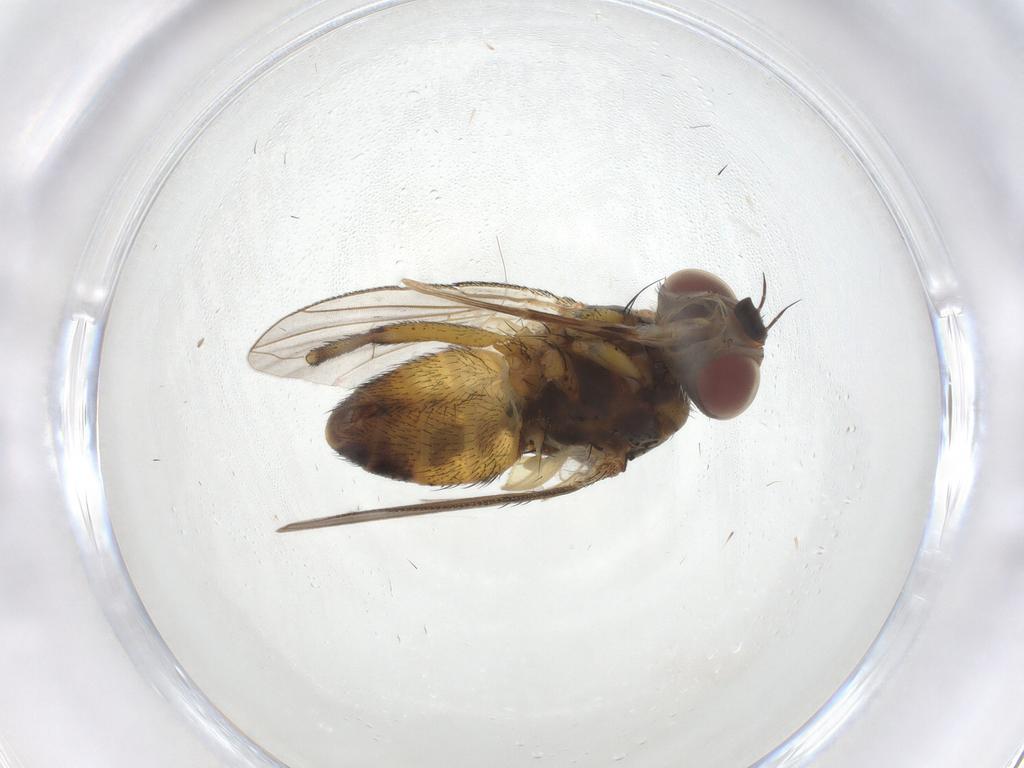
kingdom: Animalia
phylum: Arthropoda
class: Insecta
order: Diptera
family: Tachinidae
